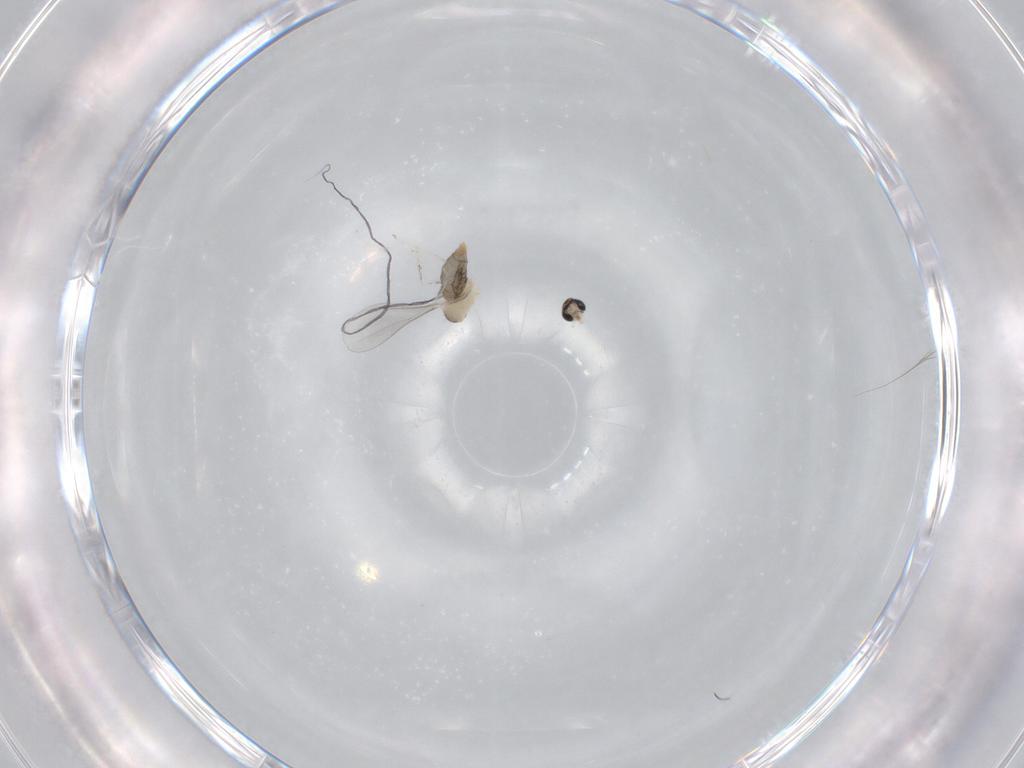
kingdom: Animalia
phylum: Arthropoda
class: Insecta
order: Diptera
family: Cecidomyiidae
